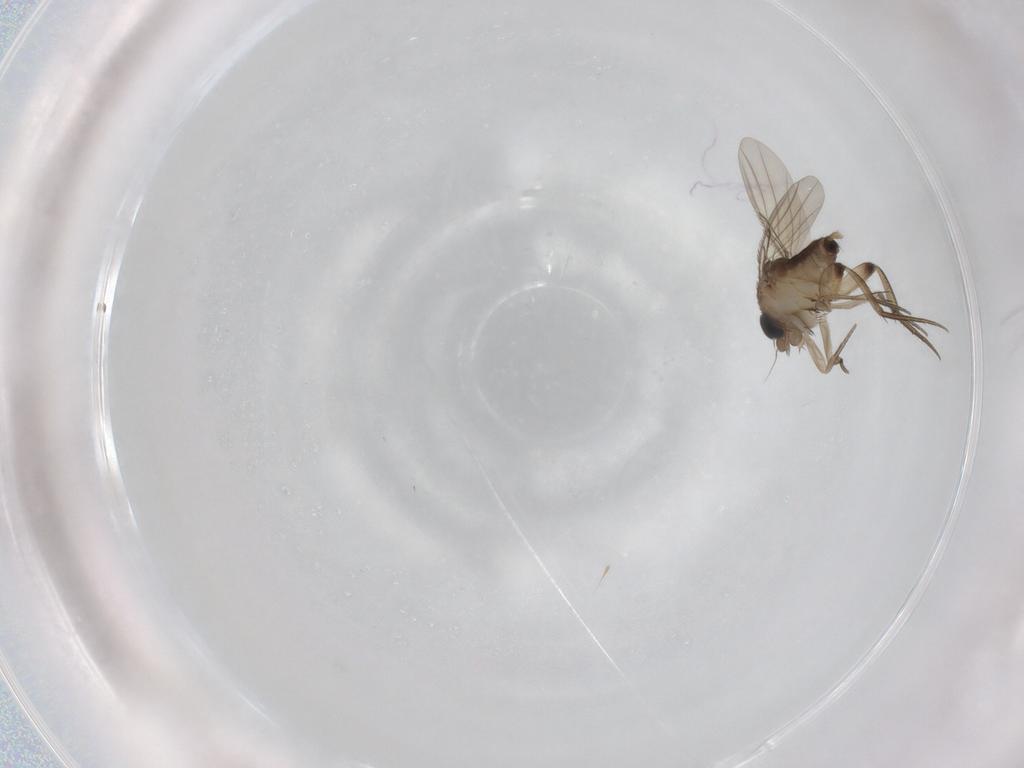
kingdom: Animalia
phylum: Arthropoda
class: Insecta
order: Diptera
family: Phoridae
